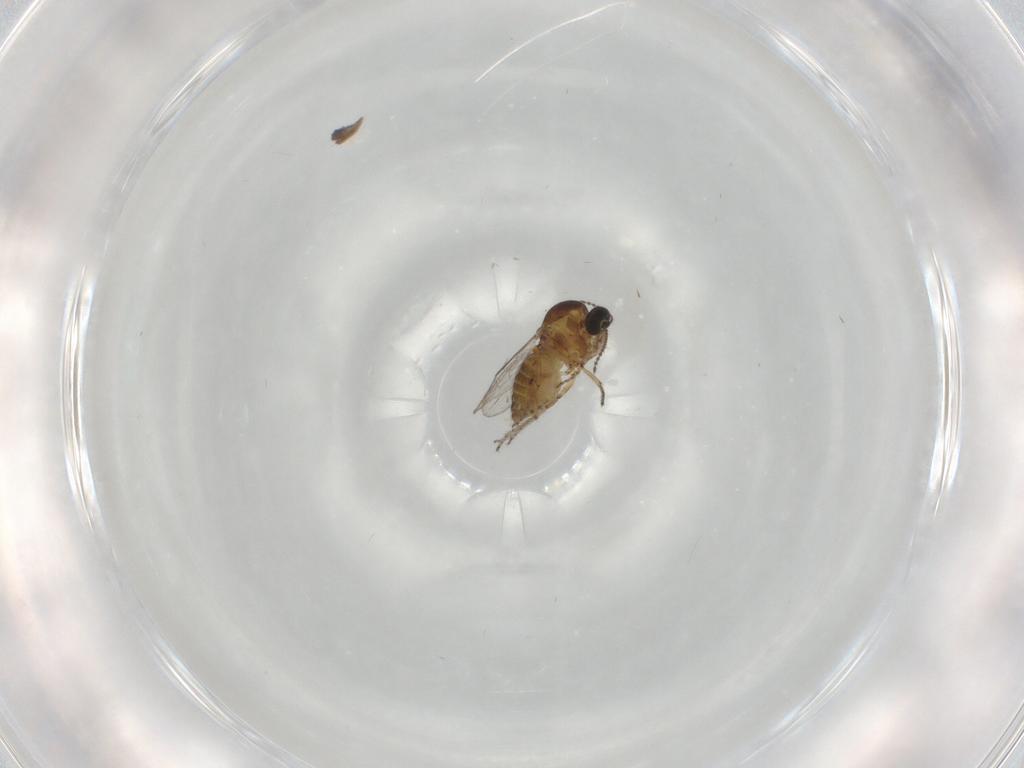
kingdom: Animalia
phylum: Arthropoda
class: Insecta
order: Diptera
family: Ceratopogonidae
